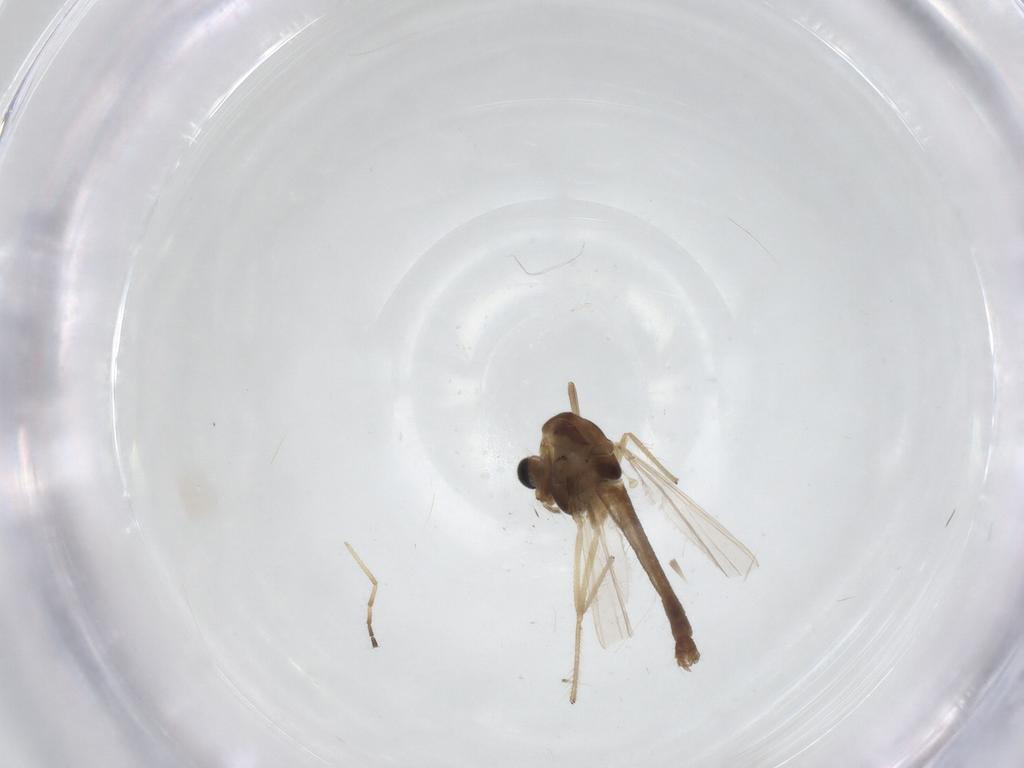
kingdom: Animalia
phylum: Arthropoda
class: Insecta
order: Diptera
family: Chironomidae
